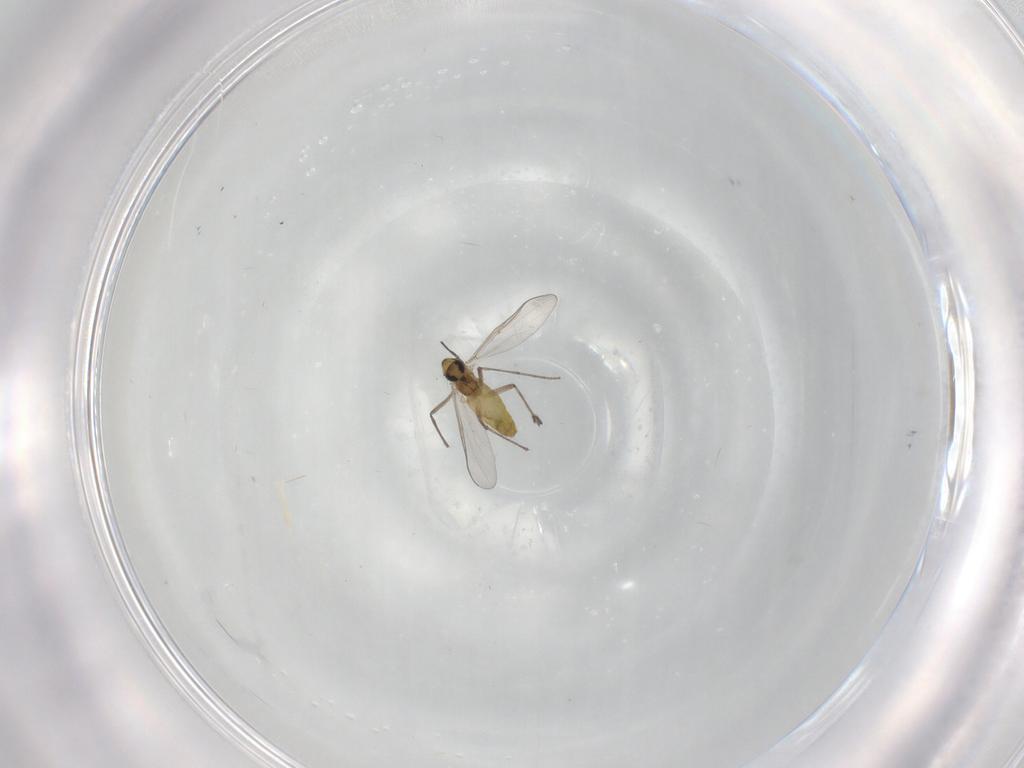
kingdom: Animalia
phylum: Arthropoda
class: Insecta
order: Diptera
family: Chironomidae
